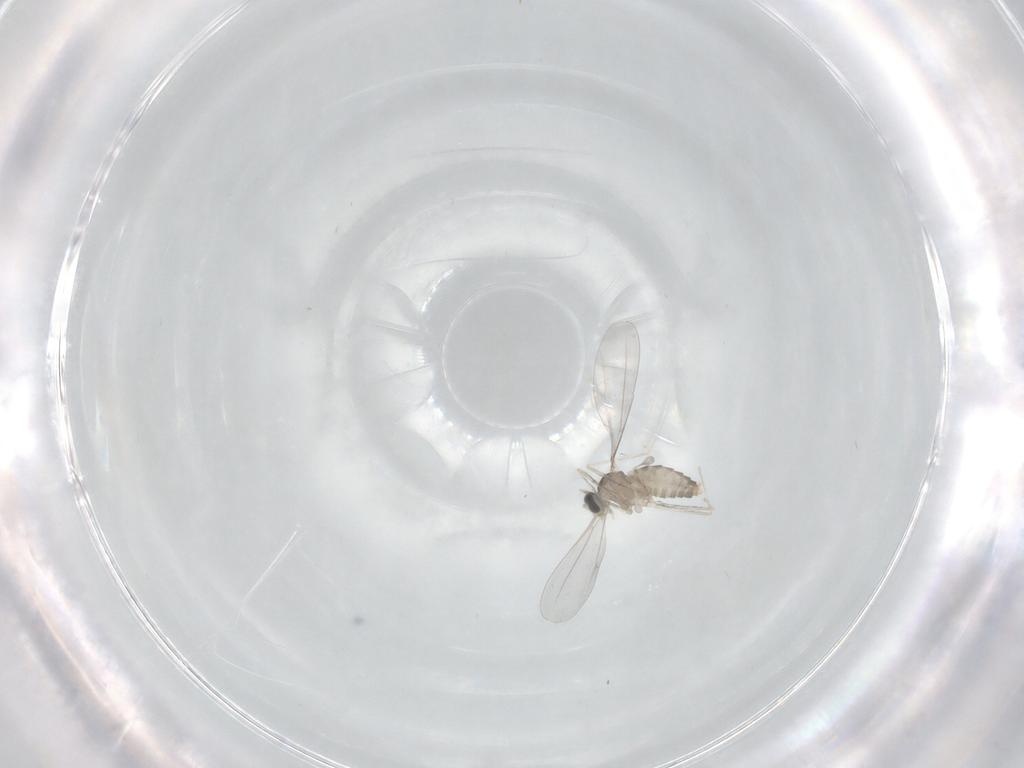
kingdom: Animalia
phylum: Arthropoda
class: Insecta
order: Diptera
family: Cecidomyiidae
